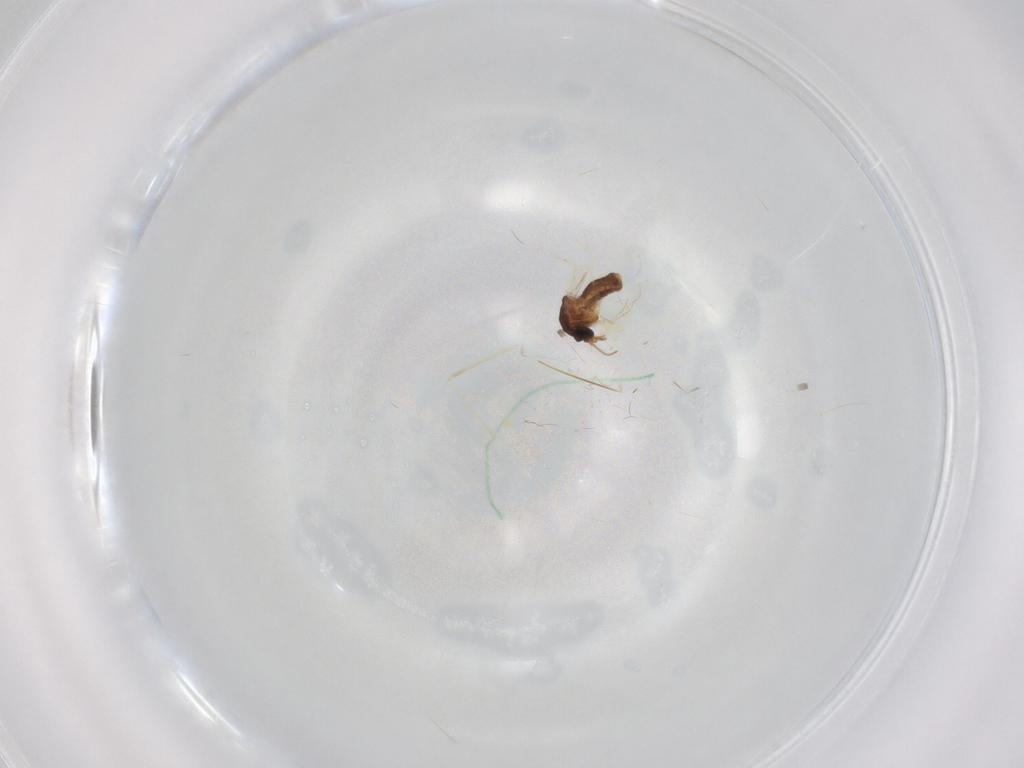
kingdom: Animalia
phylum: Arthropoda
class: Insecta
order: Diptera
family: Ceratopogonidae
